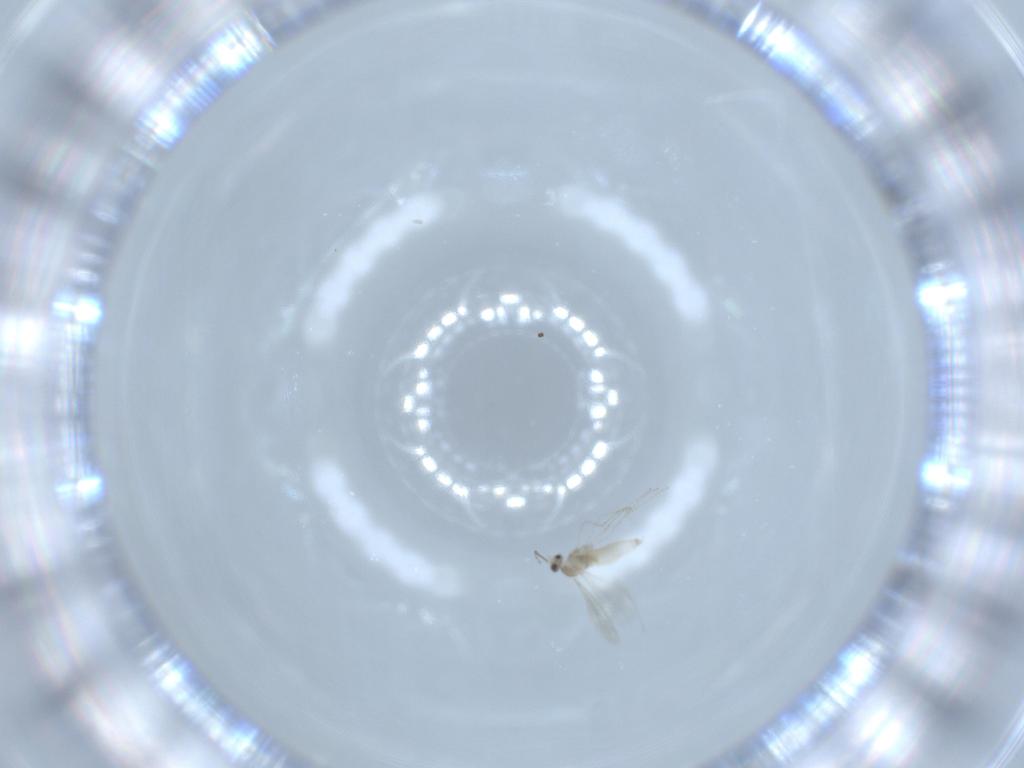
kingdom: Animalia
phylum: Arthropoda
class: Insecta
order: Diptera
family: Cecidomyiidae
